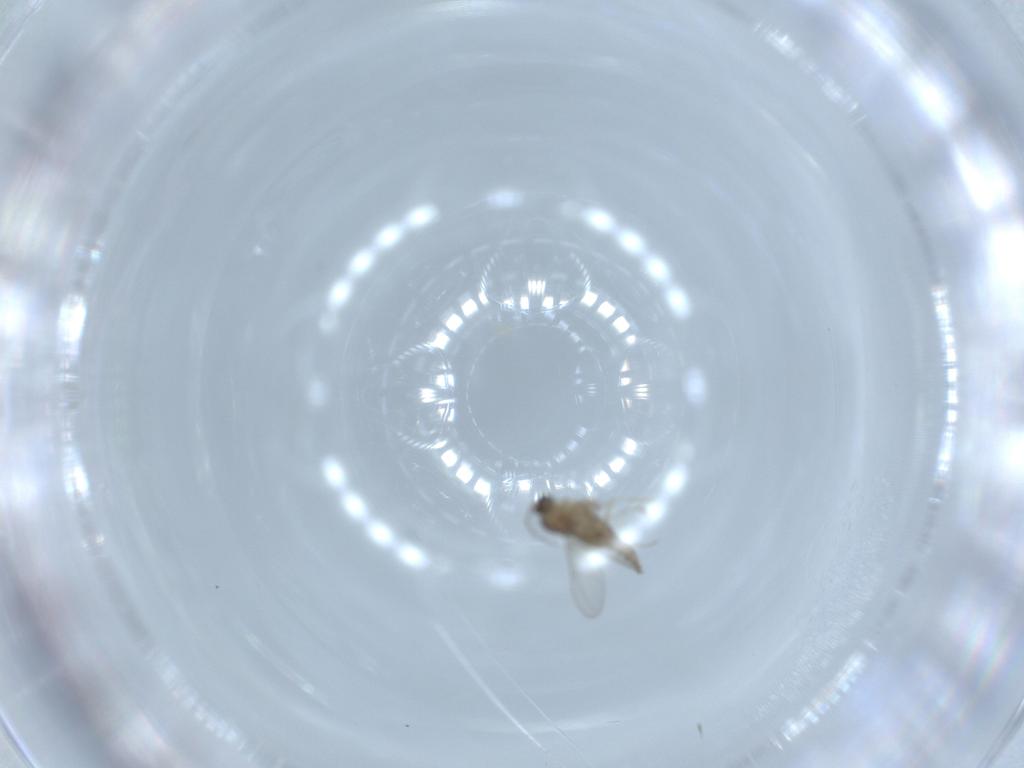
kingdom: Animalia
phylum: Arthropoda
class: Insecta
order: Diptera
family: Cecidomyiidae
